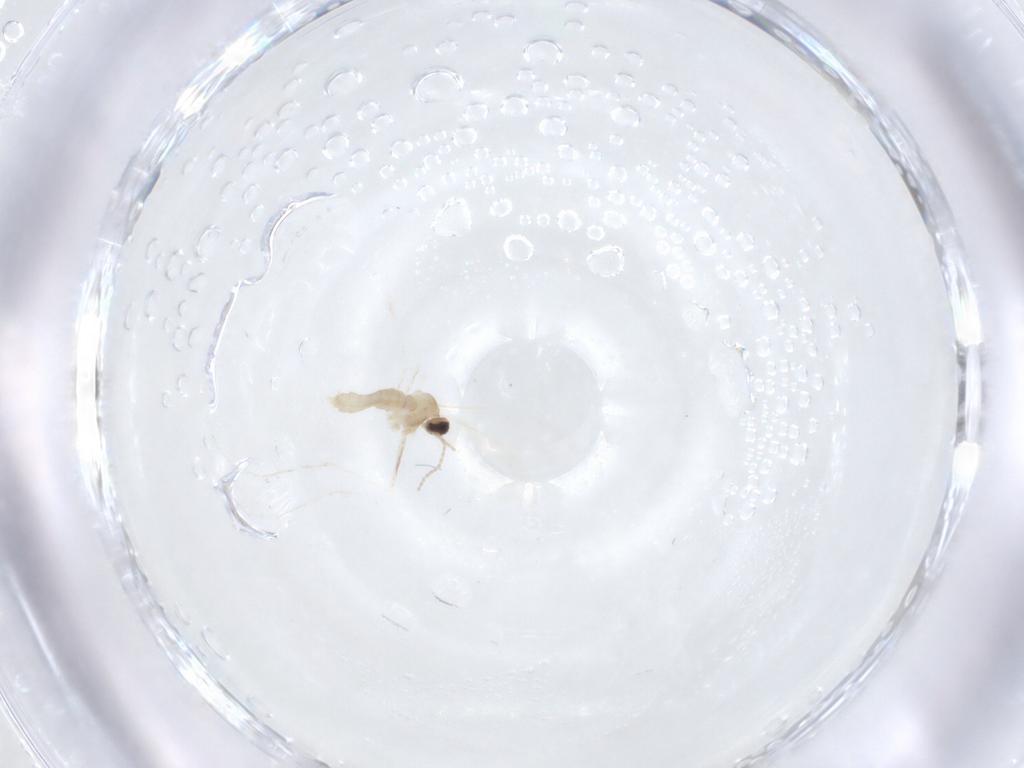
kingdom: Animalia
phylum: Arthropoda
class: Insecta
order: Diptera
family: Cecidomyiidae
